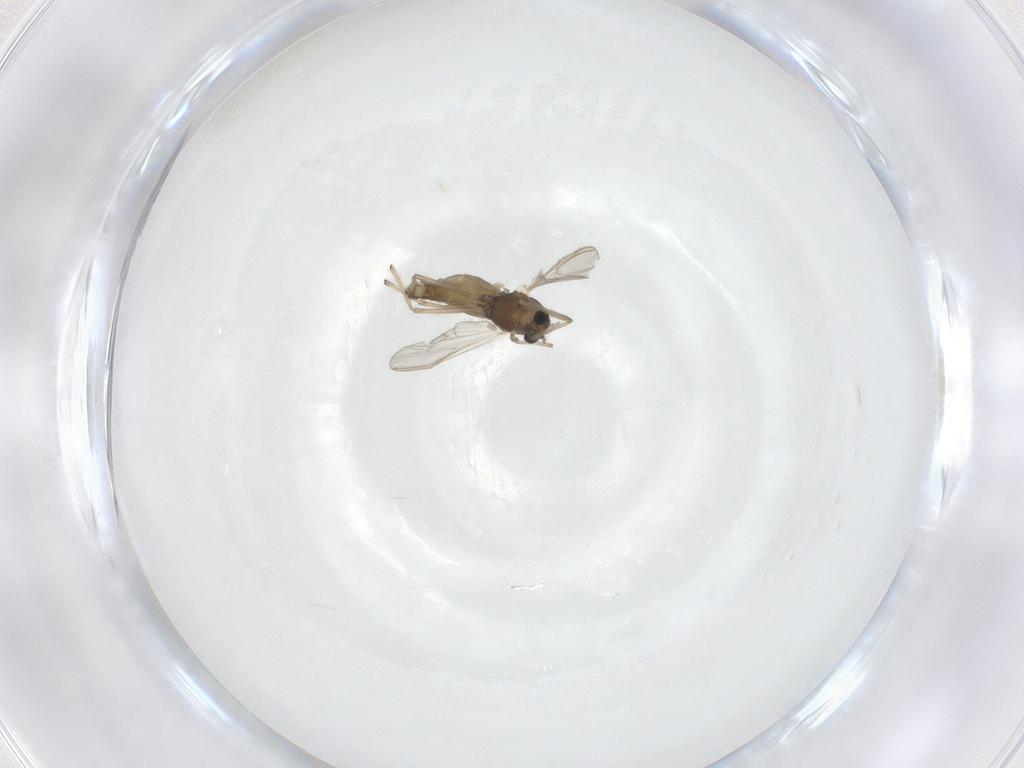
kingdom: Animalia
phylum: Arthropoda
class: Insecta
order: Diptera
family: Chironomidae
